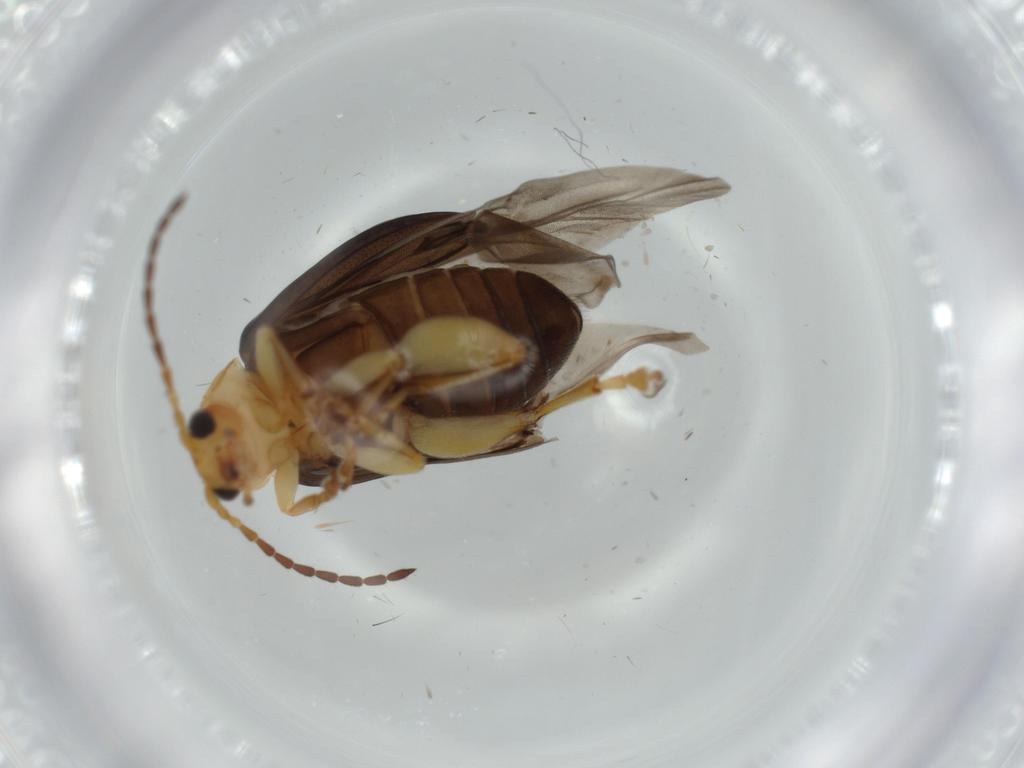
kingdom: Animalia
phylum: Arthropoda
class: Insecta
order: Coleoptera
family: Chrysomelidae
